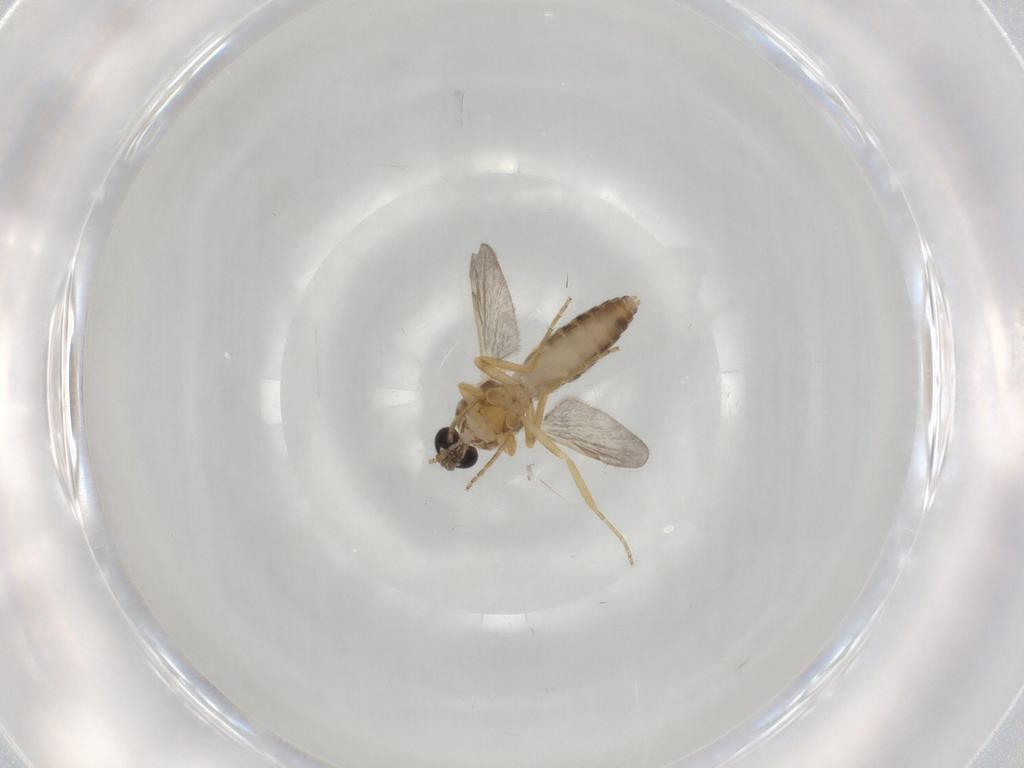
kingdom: Animalia
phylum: Arthropoda
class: Insecta
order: Diptera
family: Ceratopogonidae
